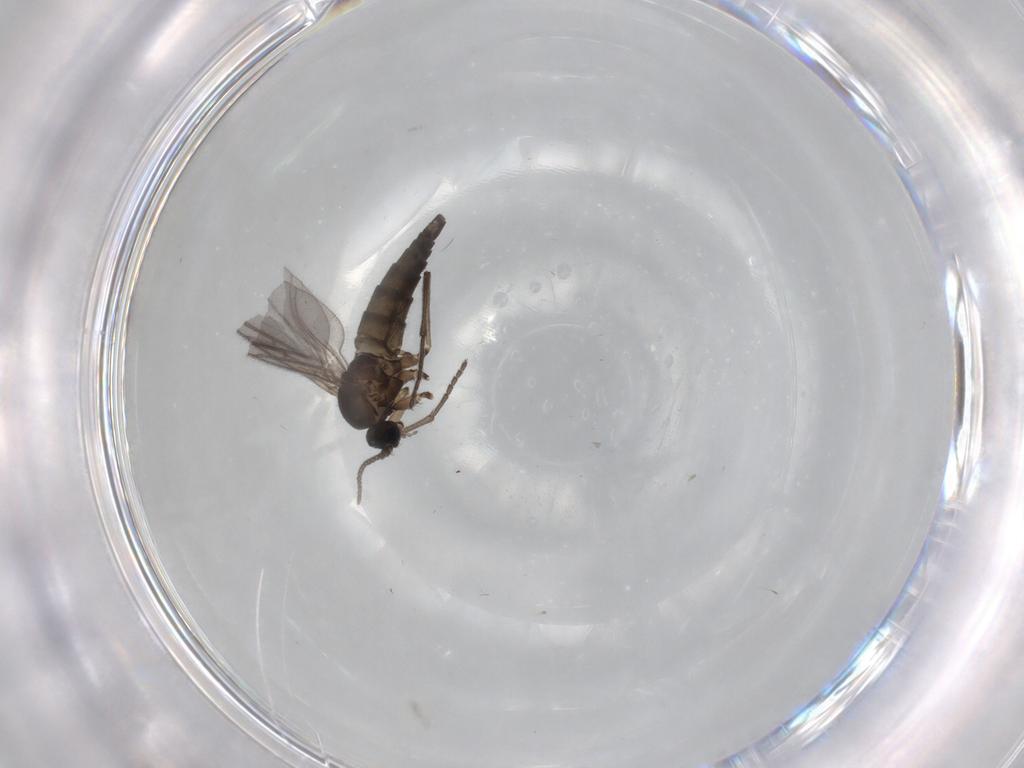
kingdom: Animalia
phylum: Arthropoda
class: Insecta
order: Diptera
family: Sciaridae
